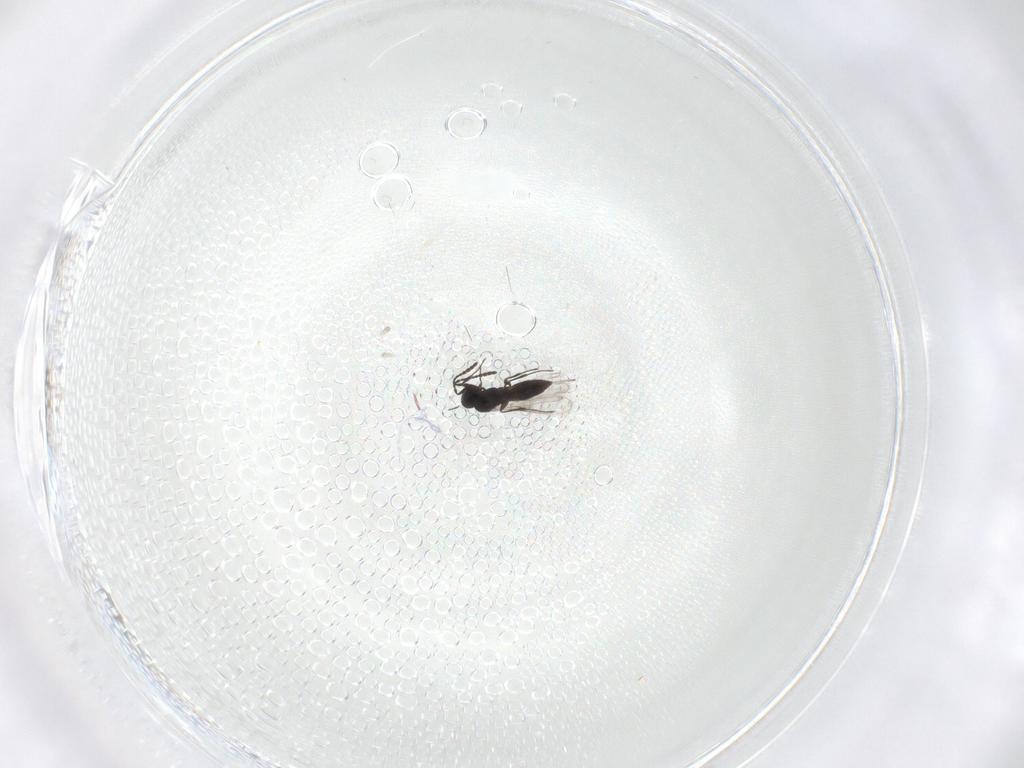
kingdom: Animalia
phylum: Arthropoda
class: Insecta
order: Hymenoptera
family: Scelionidae
